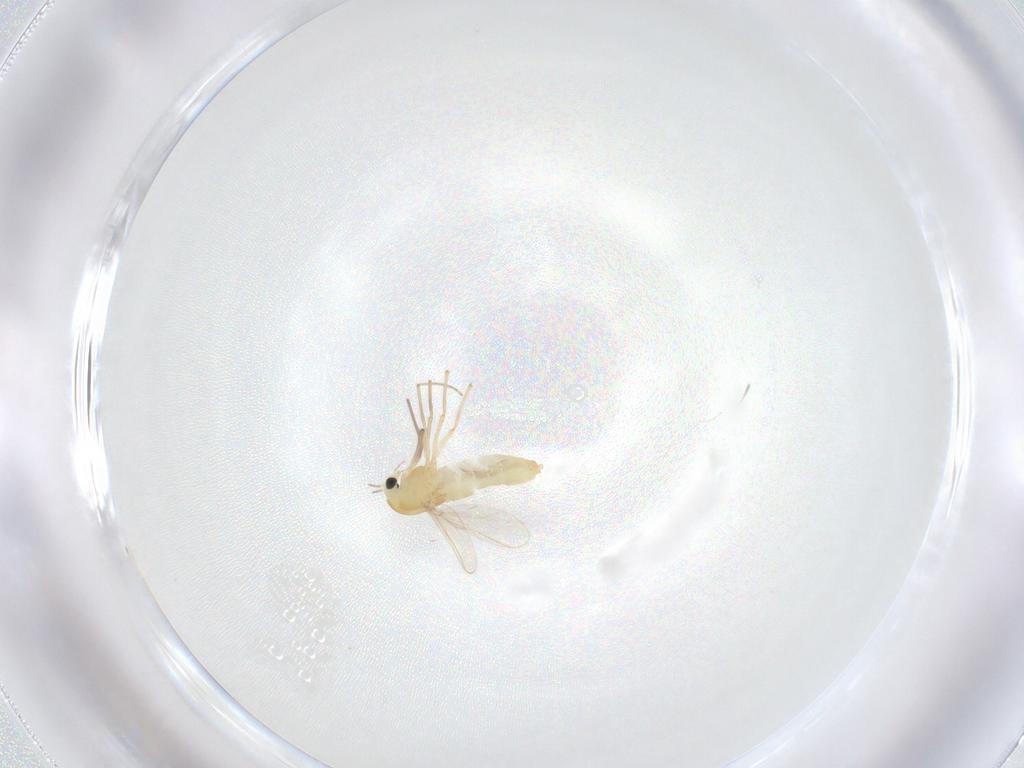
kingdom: Animalia
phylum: Arthropoda
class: Insecta
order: Diptera
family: Chironomidae
